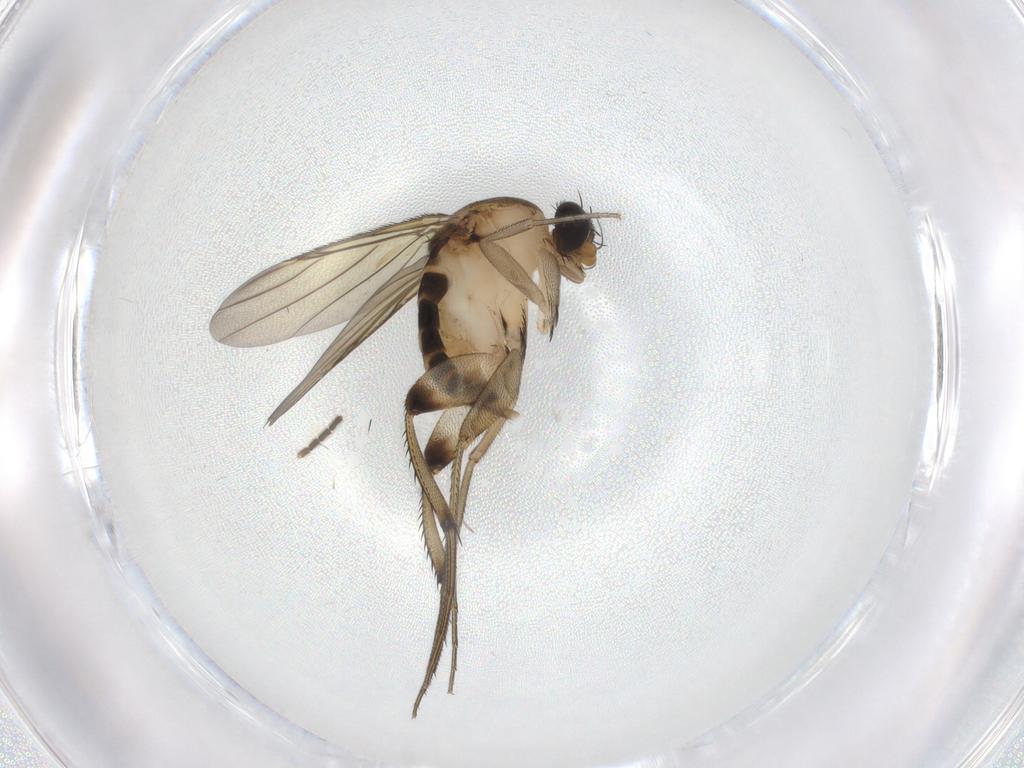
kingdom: Animalia
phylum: Arthropoda
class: Insecta
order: Diptera
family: Phoridae
